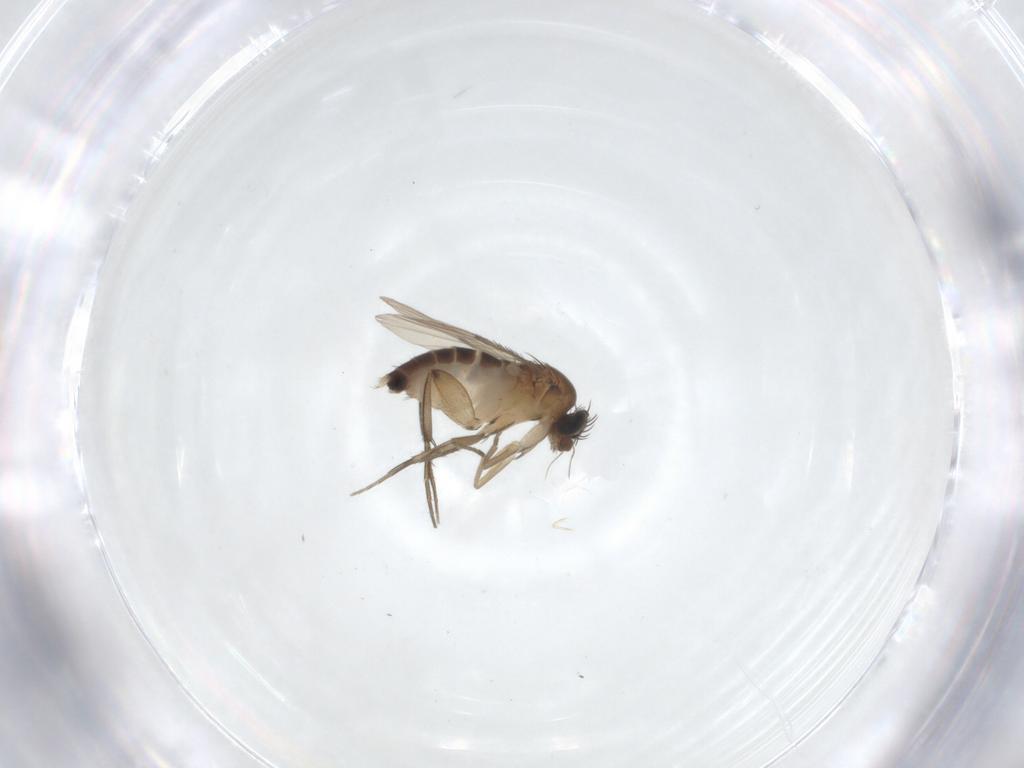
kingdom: Animalia
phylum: Arthropoda
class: Insecta
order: Diptera
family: Phoridae
